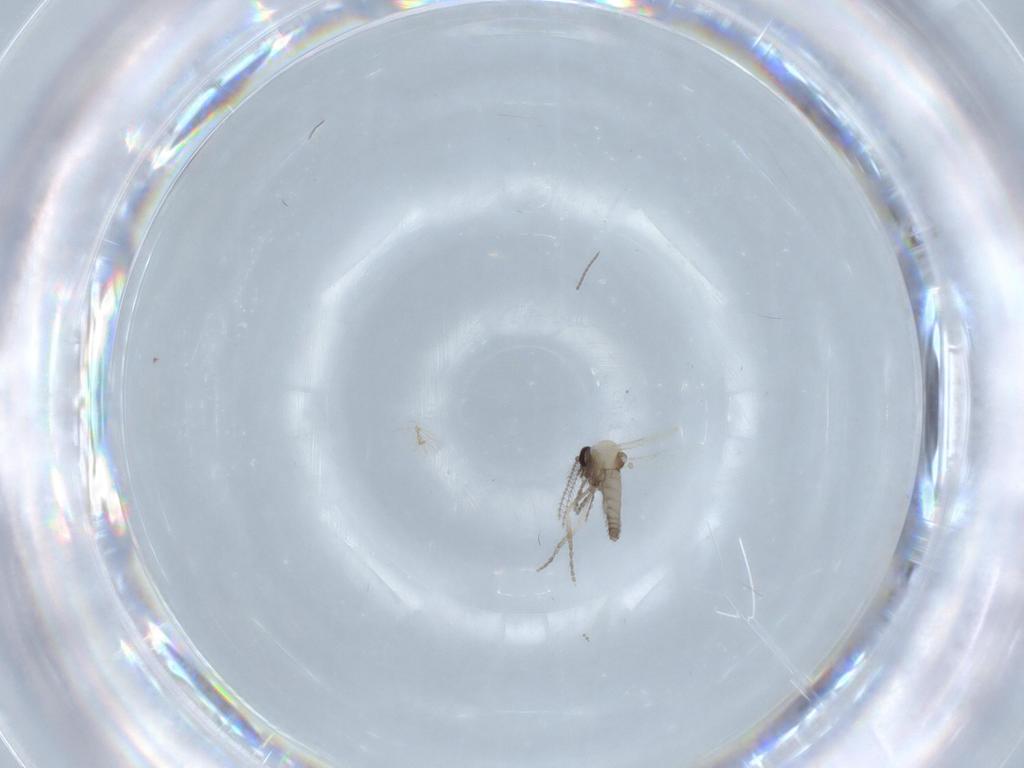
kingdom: Animalia
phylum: Arthropoda
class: Insecta
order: Diptera
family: Ceratopogonidae
